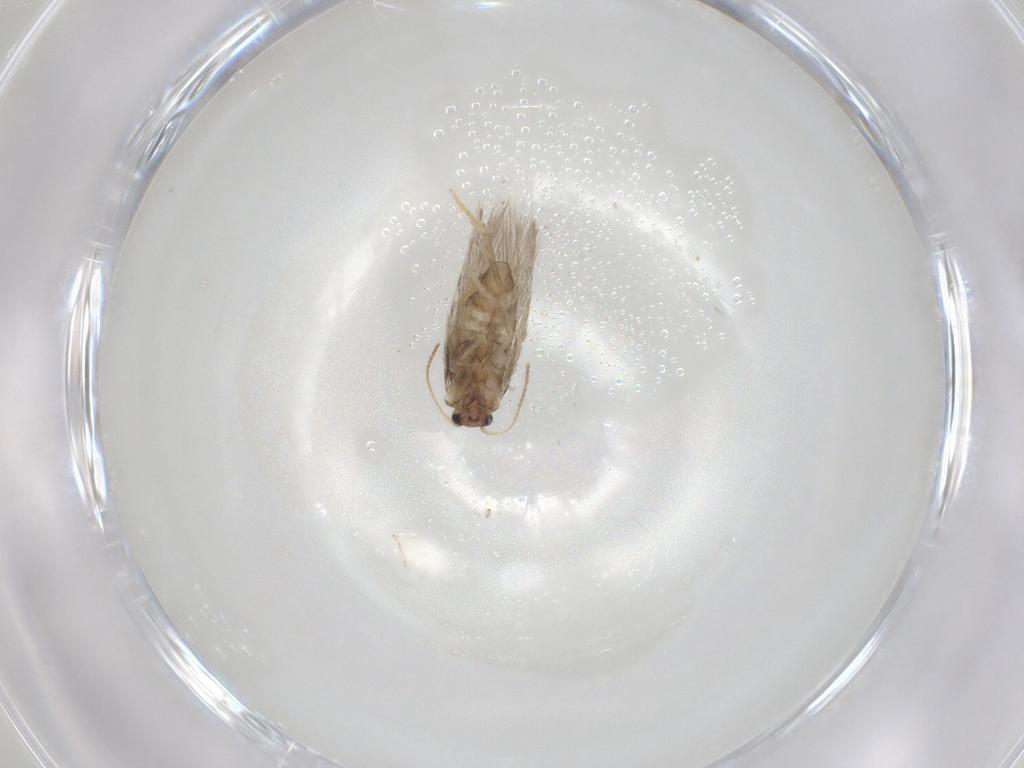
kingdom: Animalia
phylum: Arthropoda
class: Insecta
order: Lepidoptera
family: Nepticulidae
